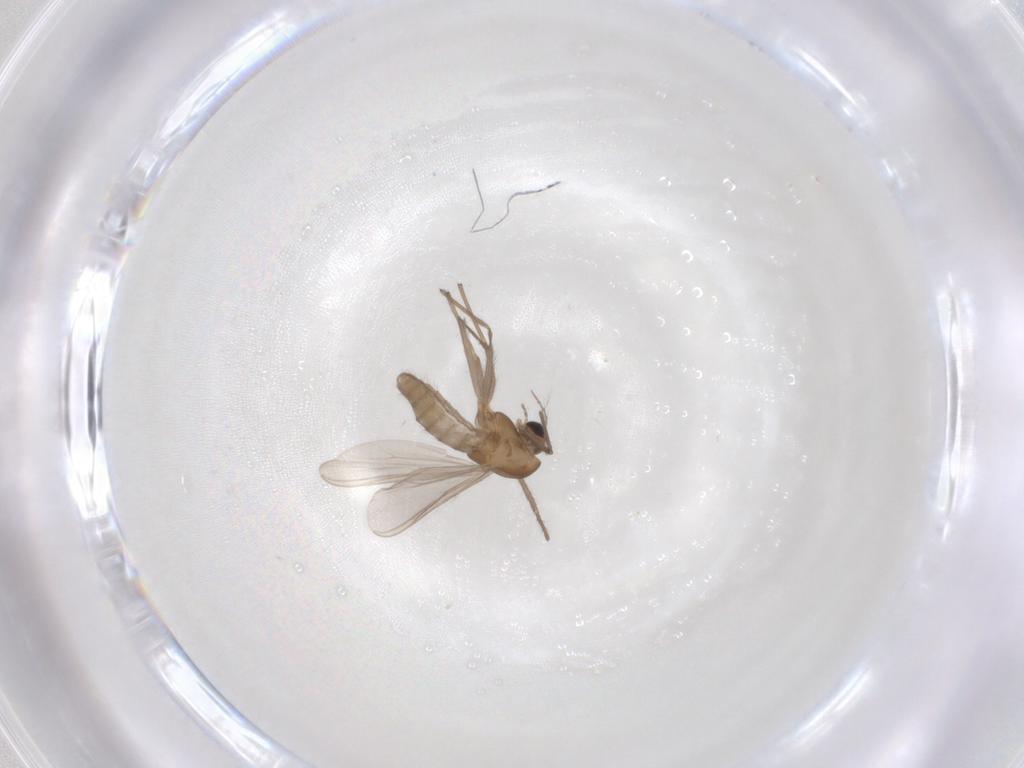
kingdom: Animalia
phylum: Arthropoda
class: Insecta
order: Diptera
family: Chironomidae
